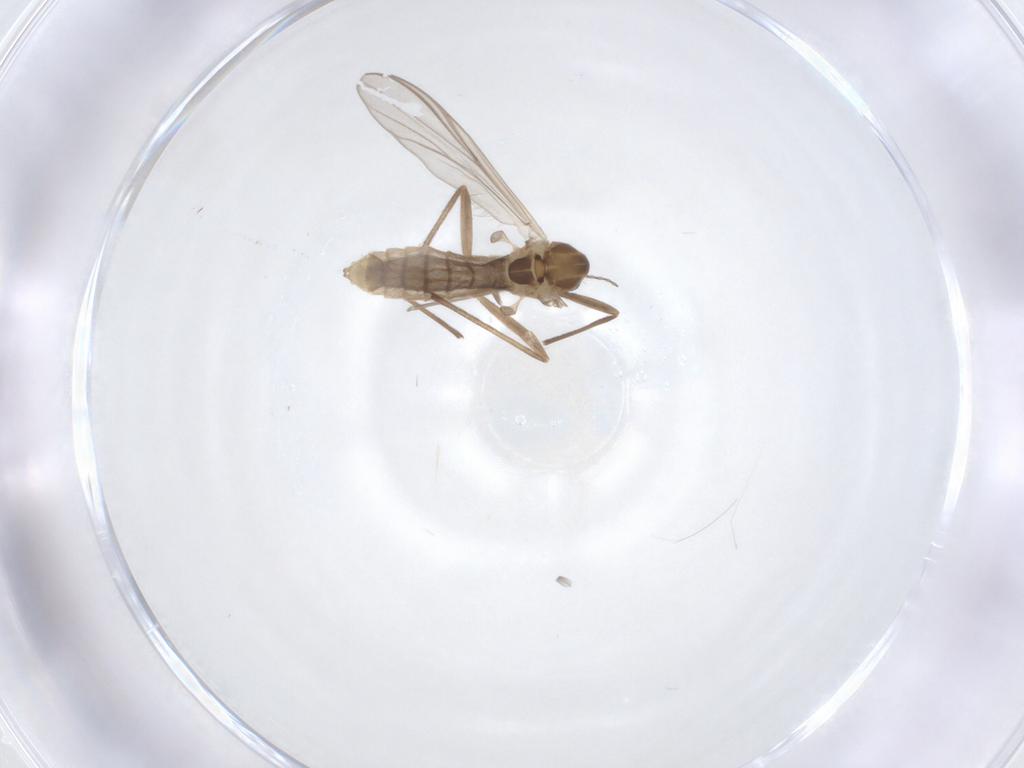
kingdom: Animalia
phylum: Arthropoda
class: Insecta
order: Diptera
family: Chironomidae
